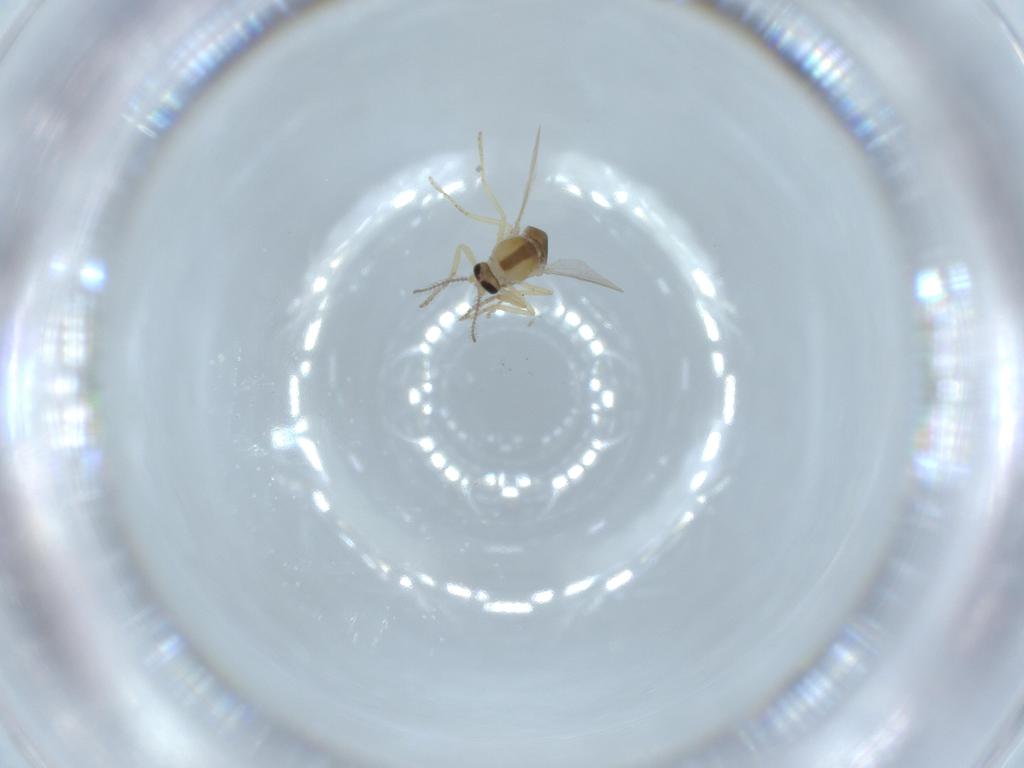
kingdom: Animalia
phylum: Arthropoda
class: Insecta
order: Diptera
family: Ceratopogonidae
